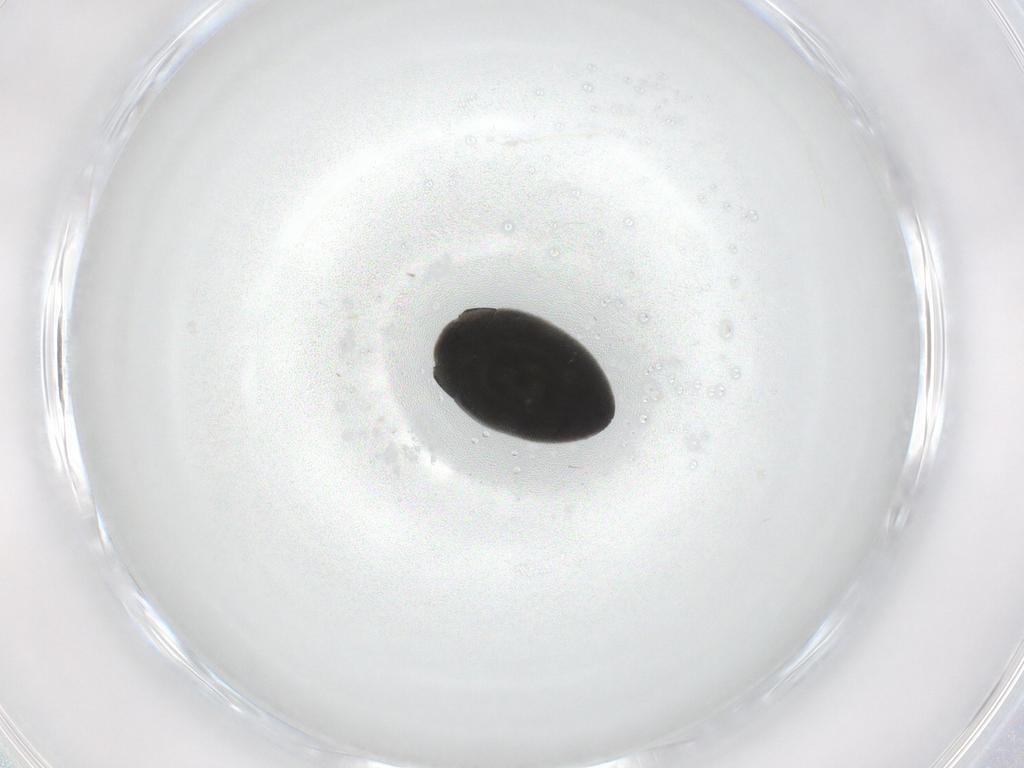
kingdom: Animalia
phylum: Arthropoda
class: Insecta
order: Coleoptera
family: Limnichidae
